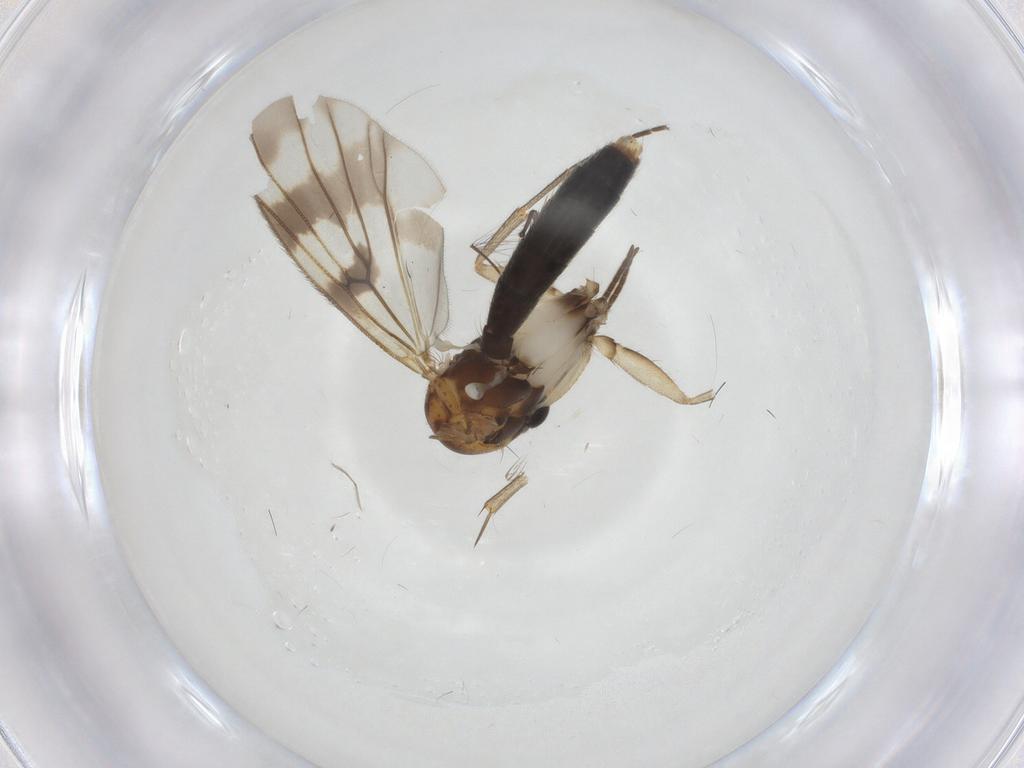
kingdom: Animalia
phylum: Arthropoda
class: Insecta
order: Diptera
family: Mycetophilidae
